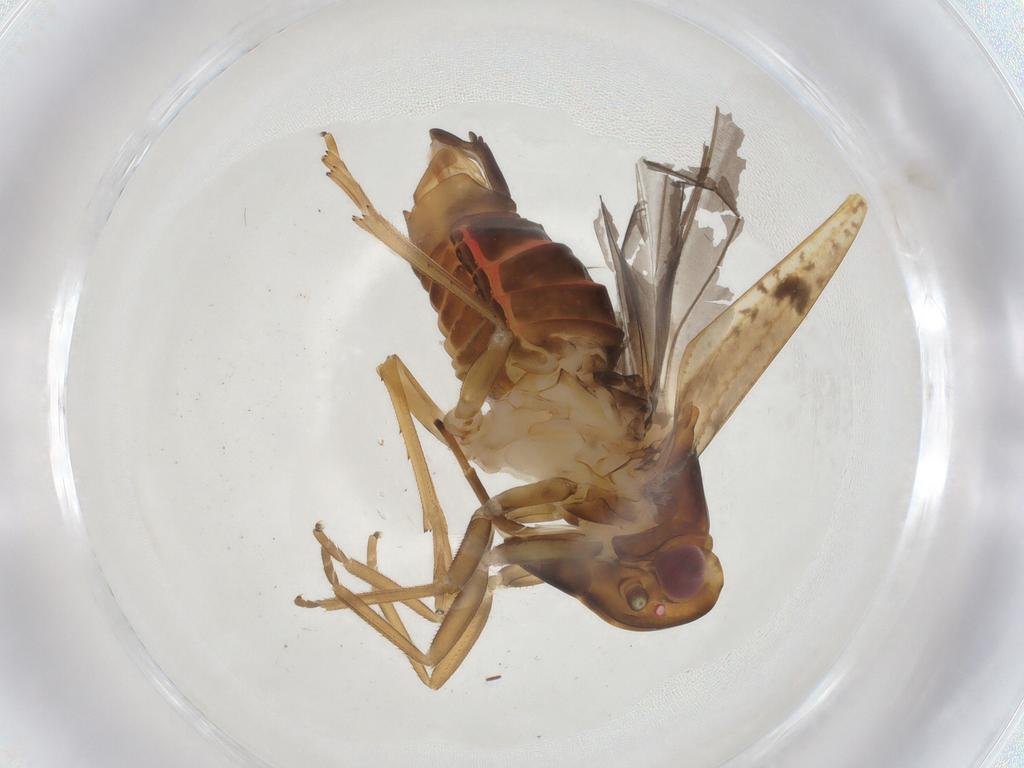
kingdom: Animalia
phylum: Arthropoda
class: Insecta
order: Hemiptera
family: Cixiidae
